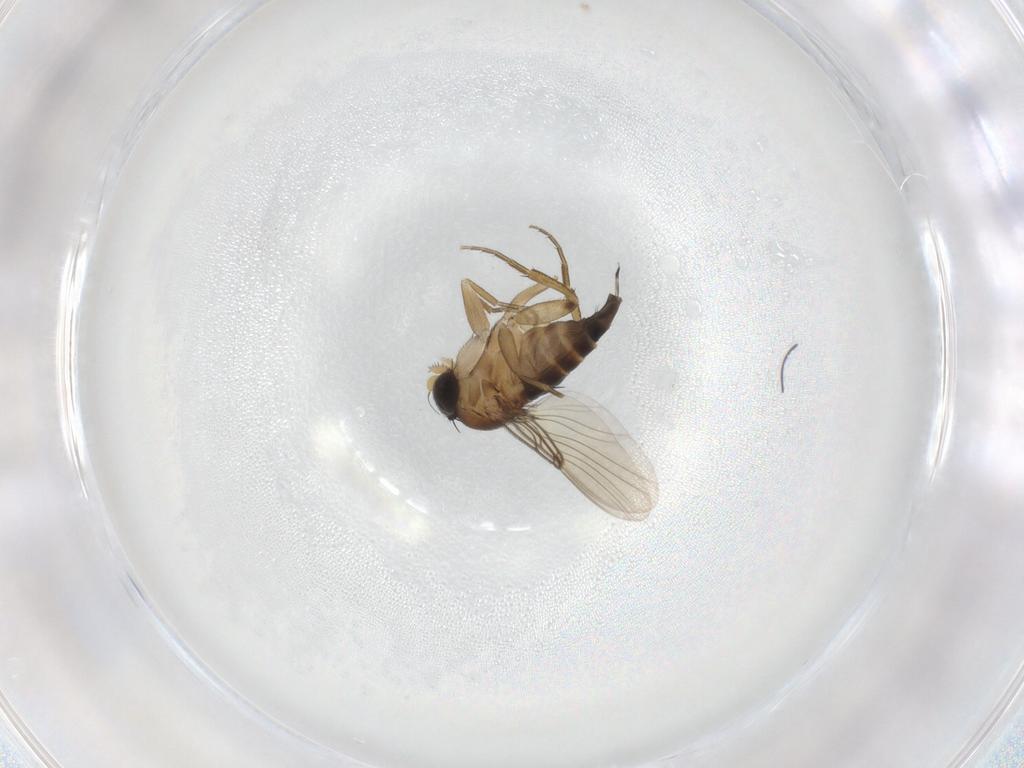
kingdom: Animalia
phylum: Arthropoda
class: Insecta
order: Diptera
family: Phoridae
